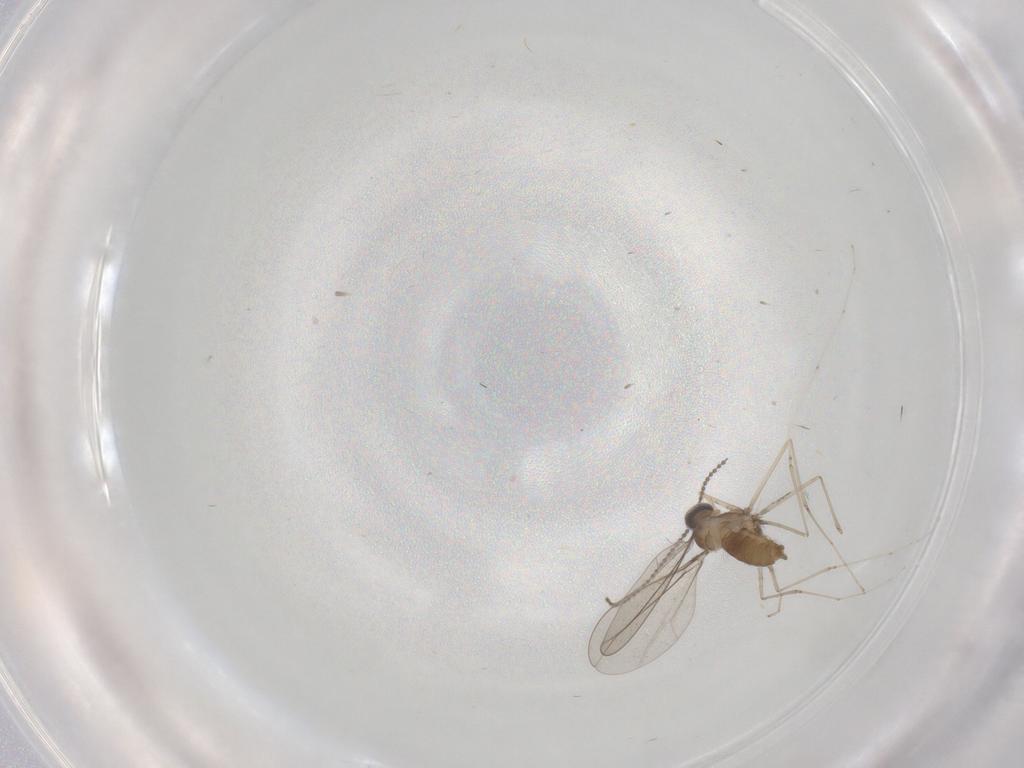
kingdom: Animalia
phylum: Arthropoda
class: Insecta
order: Diptera
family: Cecidomyiidae
